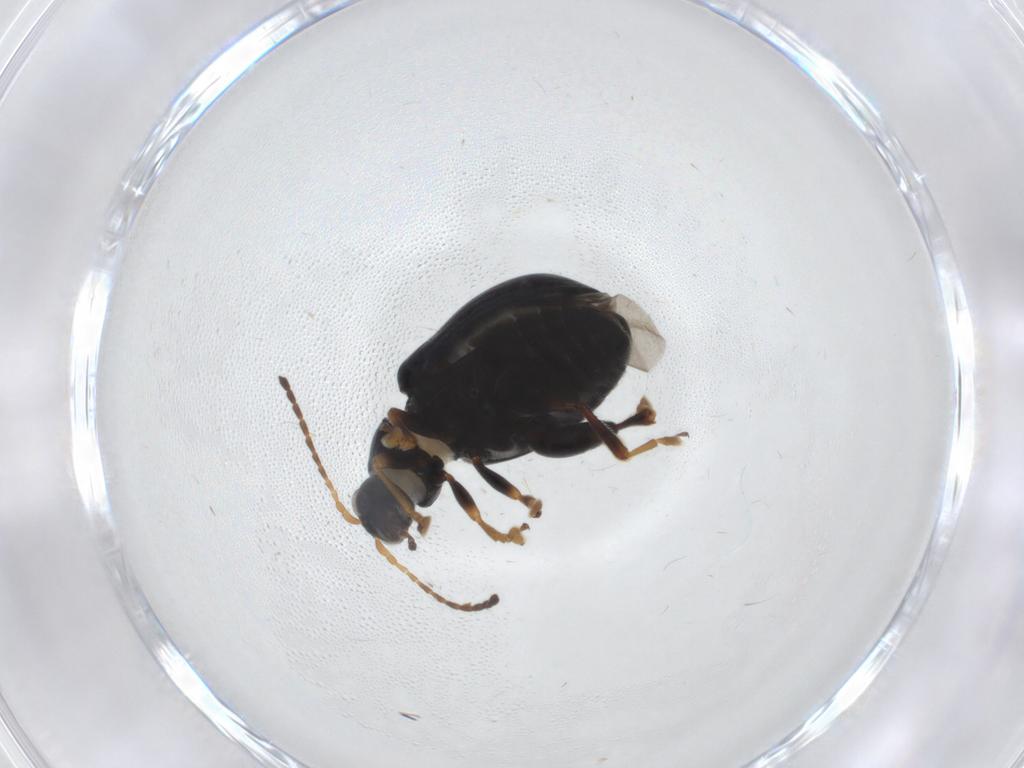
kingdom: Animalia
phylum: Arthropoda
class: Insecta
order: Coleoptera
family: Chrysomelidae
